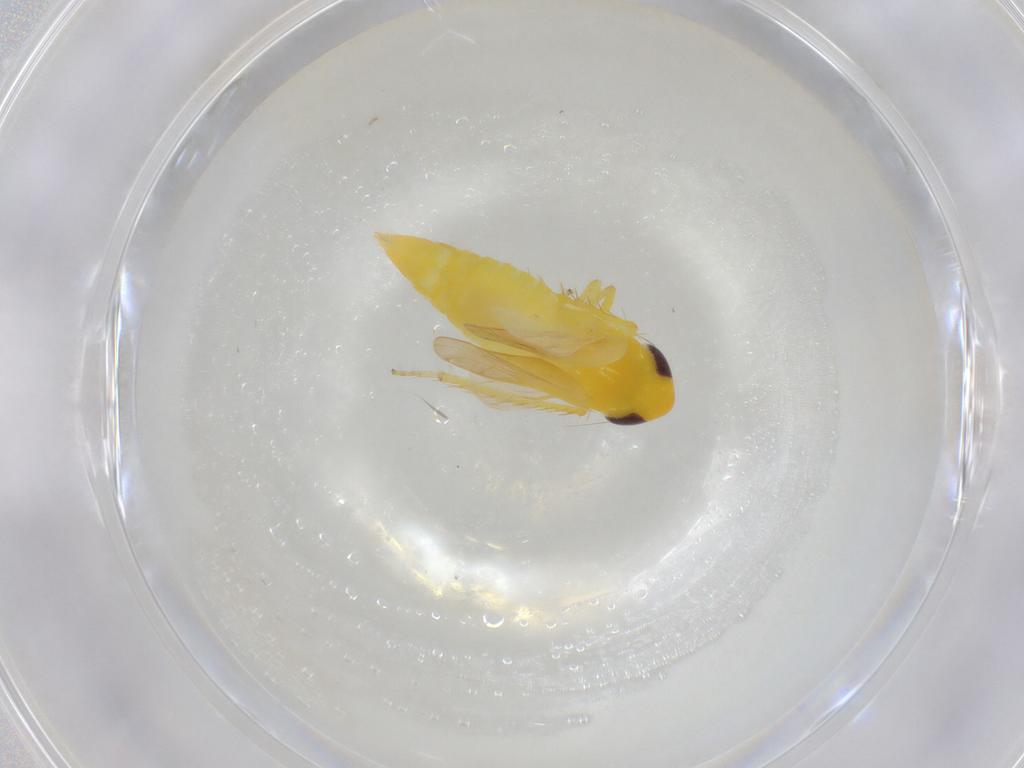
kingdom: Animalia
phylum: Arthropoda
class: Insecta
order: Hemiptera
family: Cicadellidae
